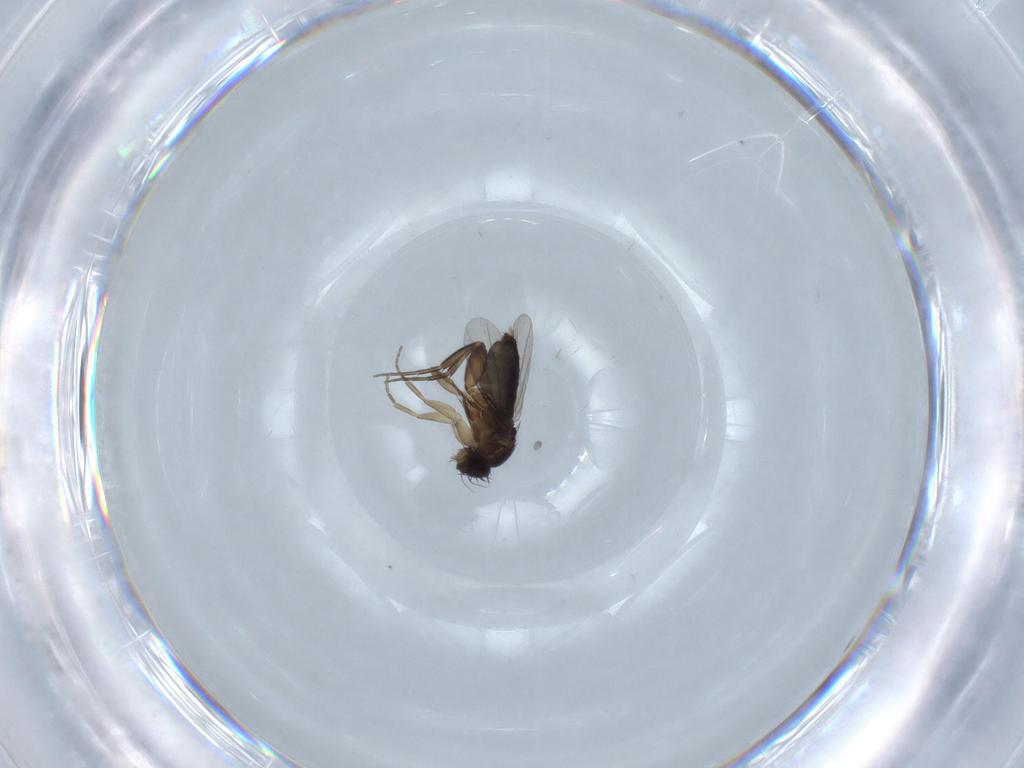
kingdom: Animalia
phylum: Arthropoda
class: Insecta
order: Diptera
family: Phoridae
